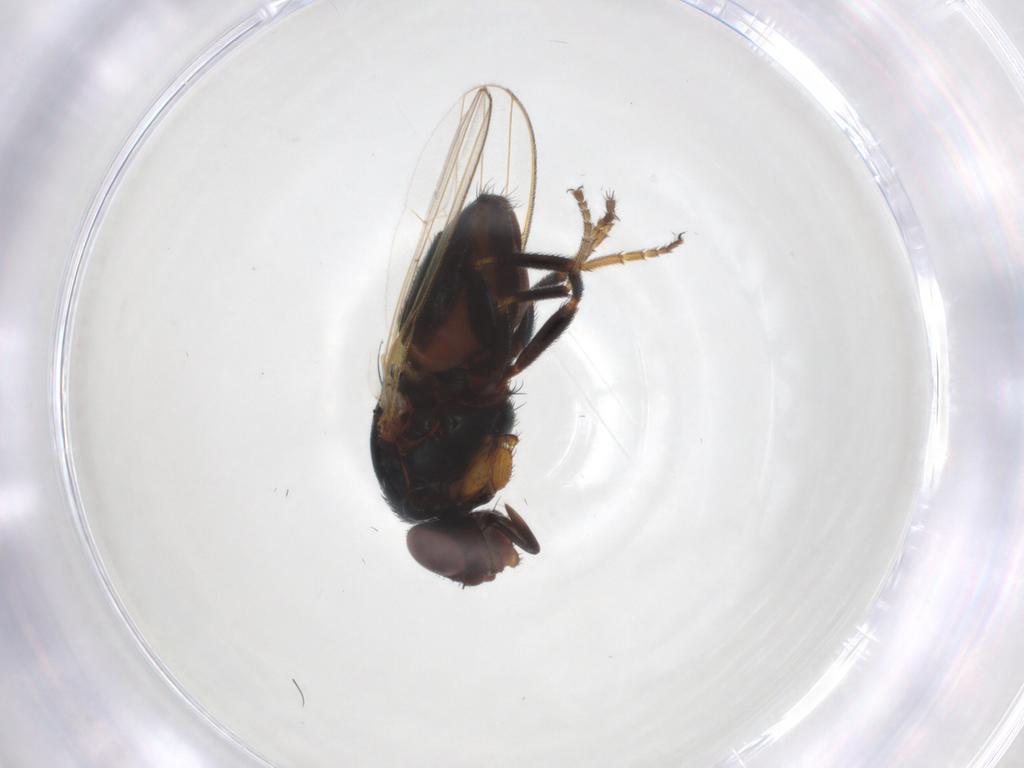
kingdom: Animalia
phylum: Arthropoda
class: Insecta
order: Diptera
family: Milichiidae
